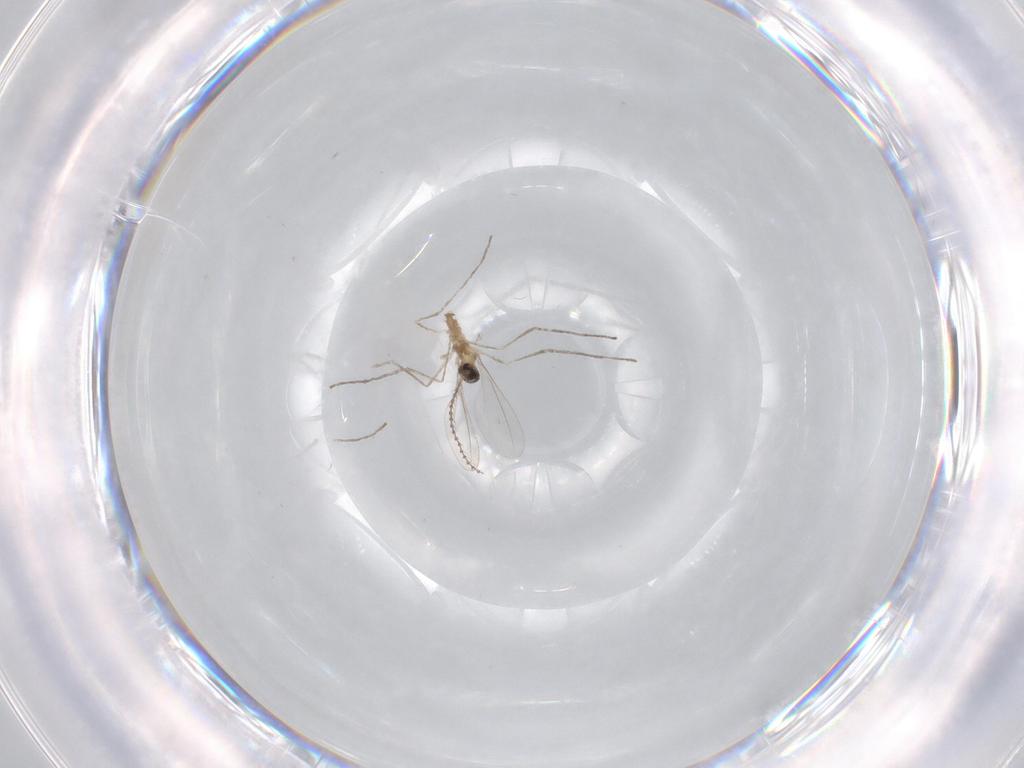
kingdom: Animalia
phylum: Arthropoda
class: Insecta
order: Diptera
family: Cecidomyiidae
